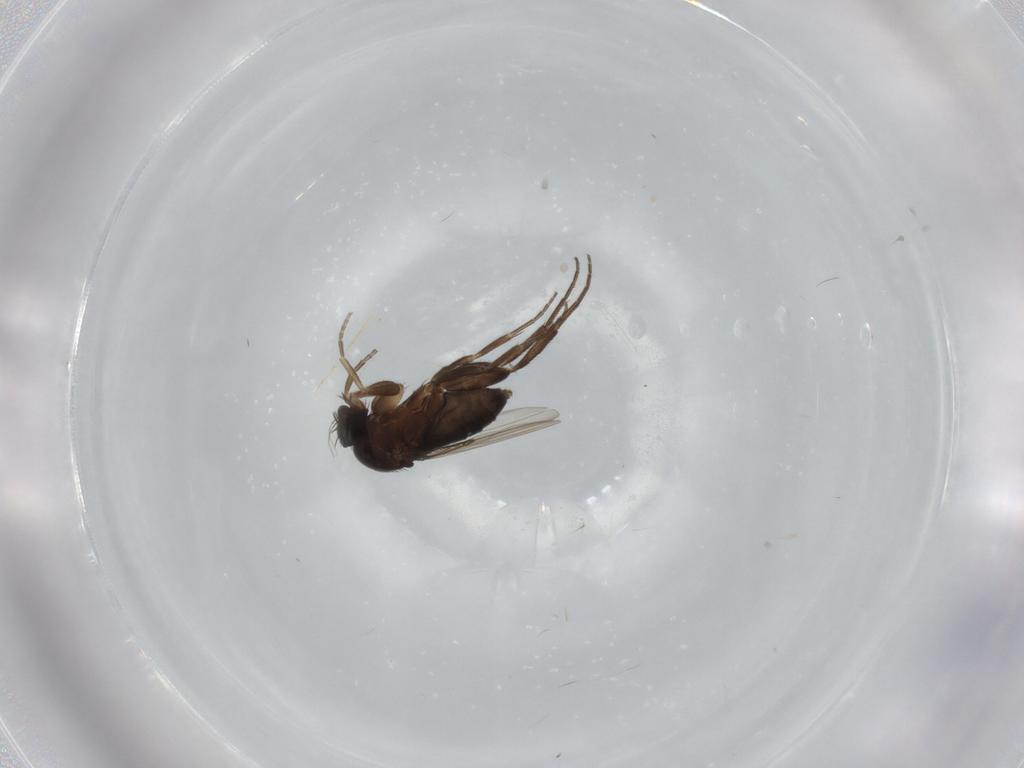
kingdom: Animalia
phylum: Arthropoda
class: Insecta
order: Diptera
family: Phoridae
